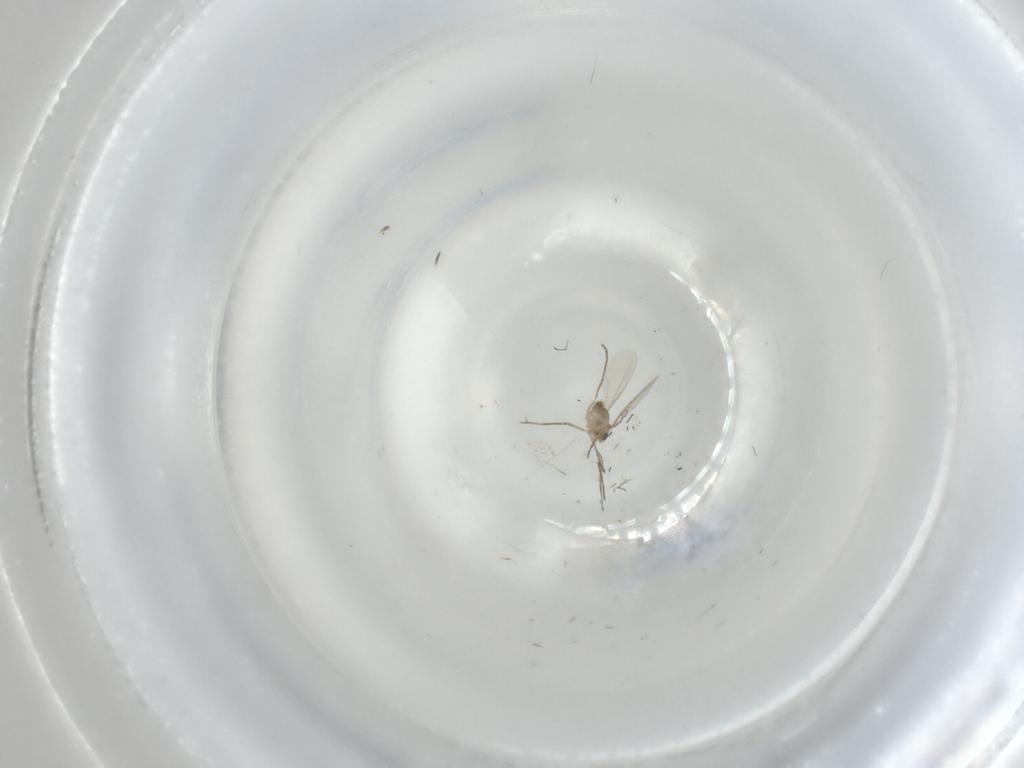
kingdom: Animalia
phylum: Arthropoda
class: Insecta
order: Diptera
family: Cecidomyiidae
